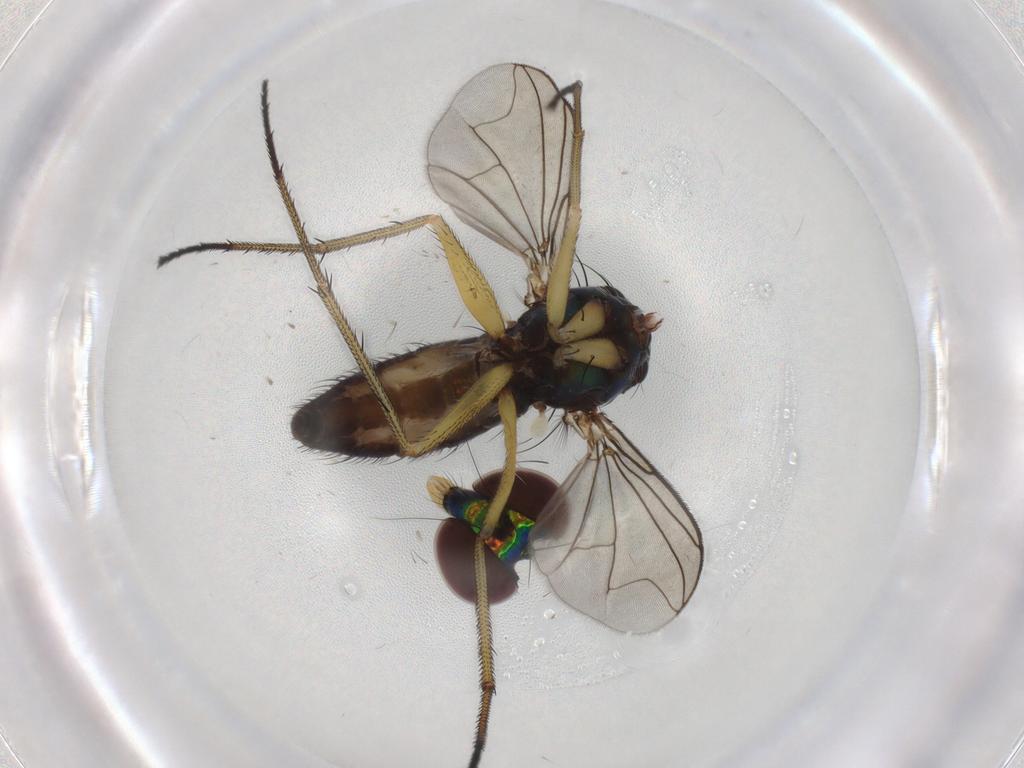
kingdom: Animalia
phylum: Arthropoda
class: Insecta
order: Diptera
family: Dolichopodidae
